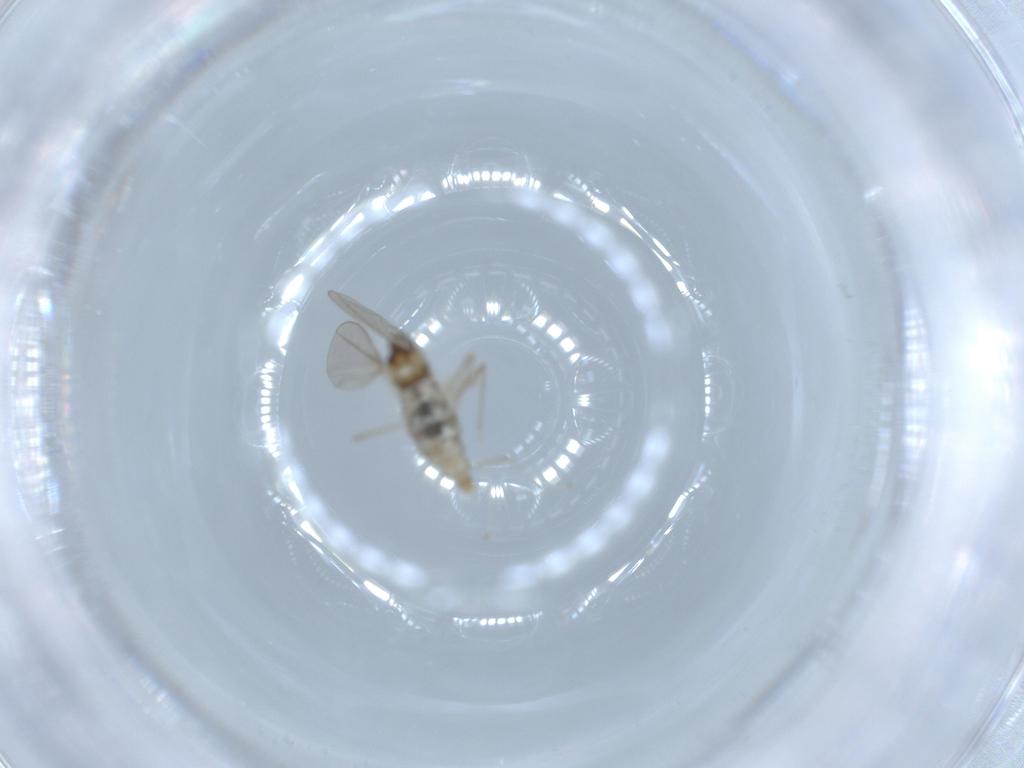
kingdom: Animalia
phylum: Arthropoda
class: Insecta
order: Diptera
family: Cecidomyiidae
